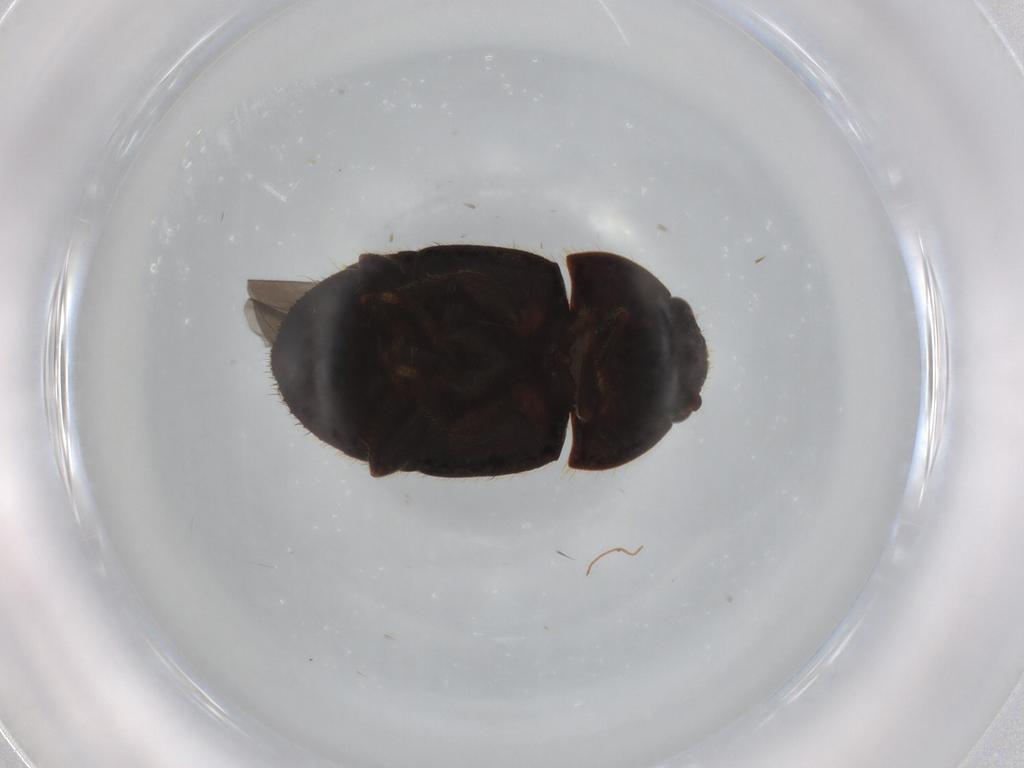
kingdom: Animalia
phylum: Arthropoda
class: Insecta
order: Coleoptera
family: Nitidulidae
